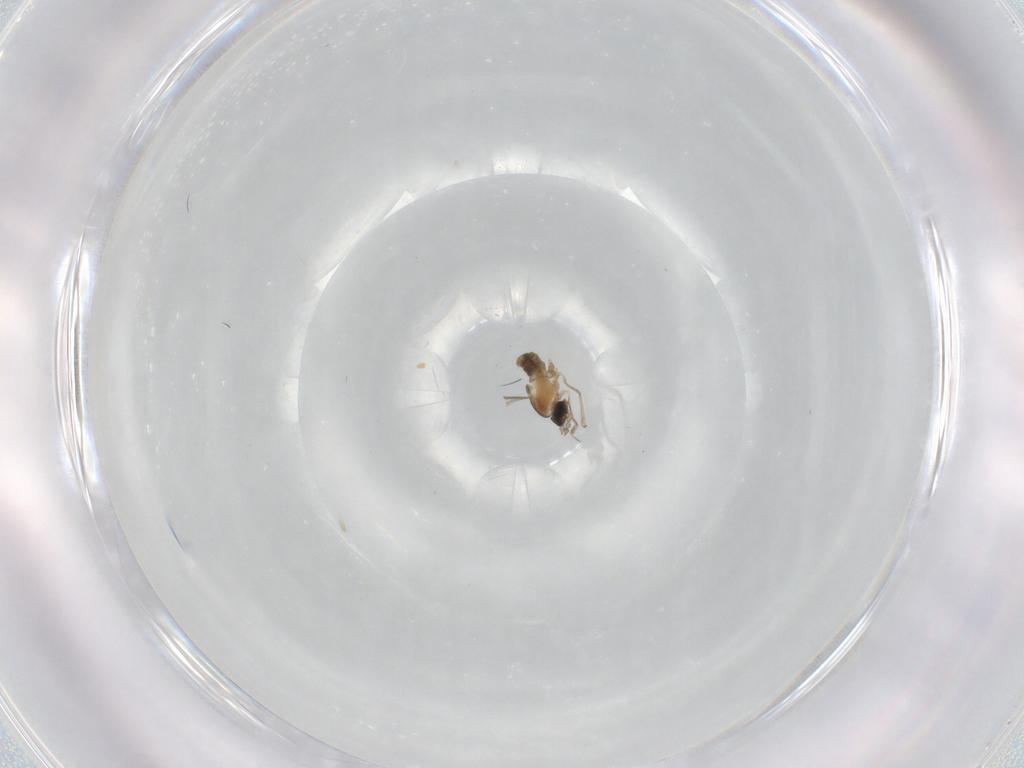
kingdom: Animalia
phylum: Arthropoda
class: Insecta
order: Diptera
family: Cecidomyiidae
